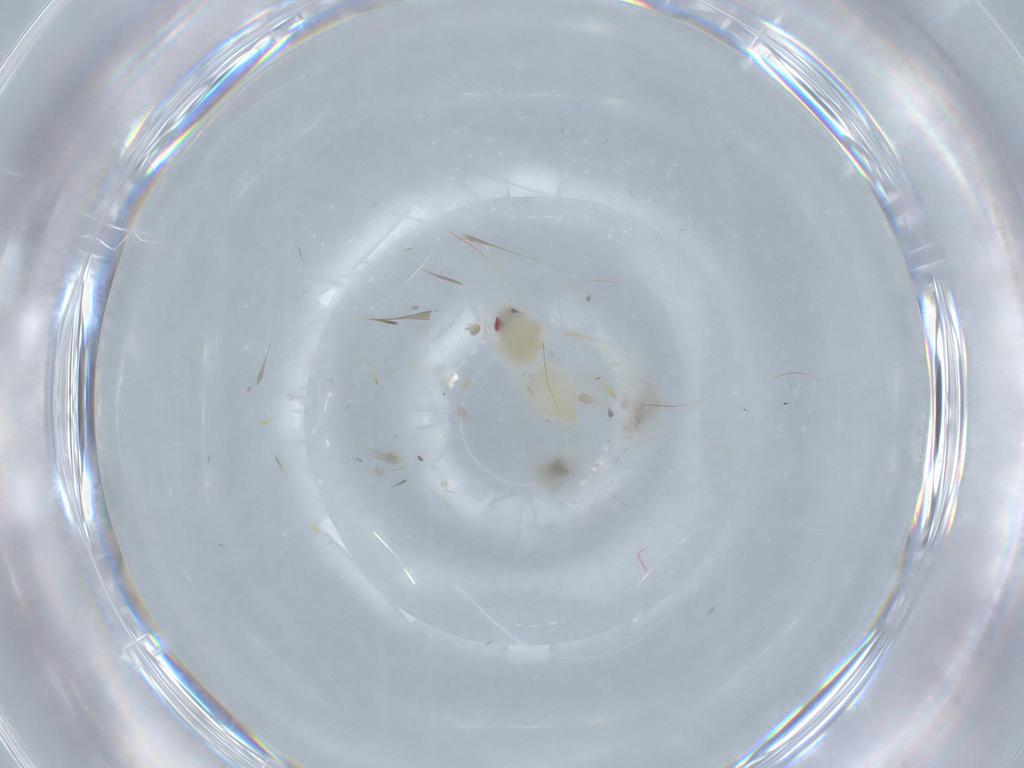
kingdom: Animalia
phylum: Arthropoda
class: Insecta
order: Hemiptera
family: Aleyrodidae
